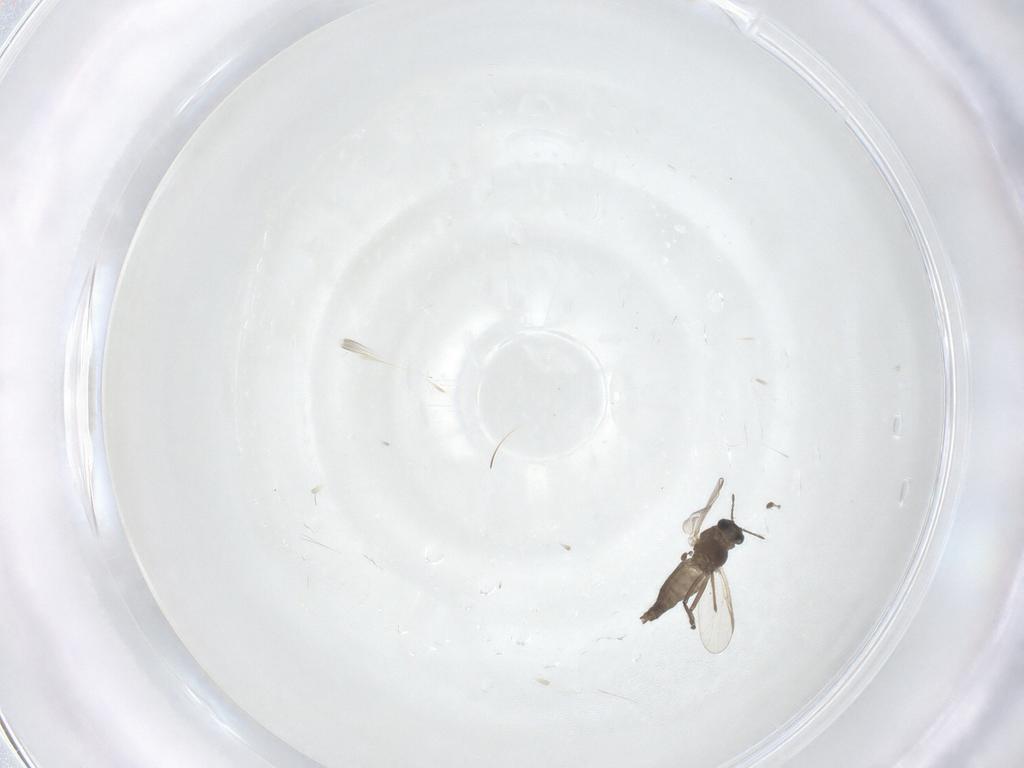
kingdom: Animalia
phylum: Arthropoda
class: Insecta
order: Diptera
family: Chironomidae
